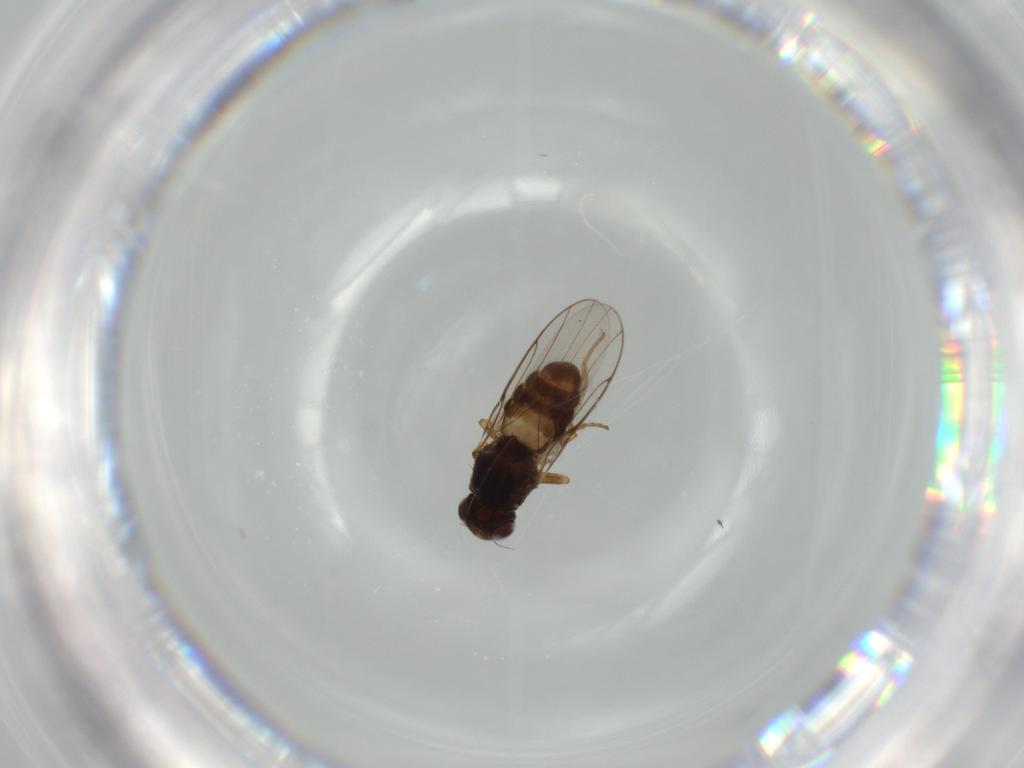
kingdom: Animalia
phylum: Arthropoda
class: Insecta
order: Diptera
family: Chloropidae
